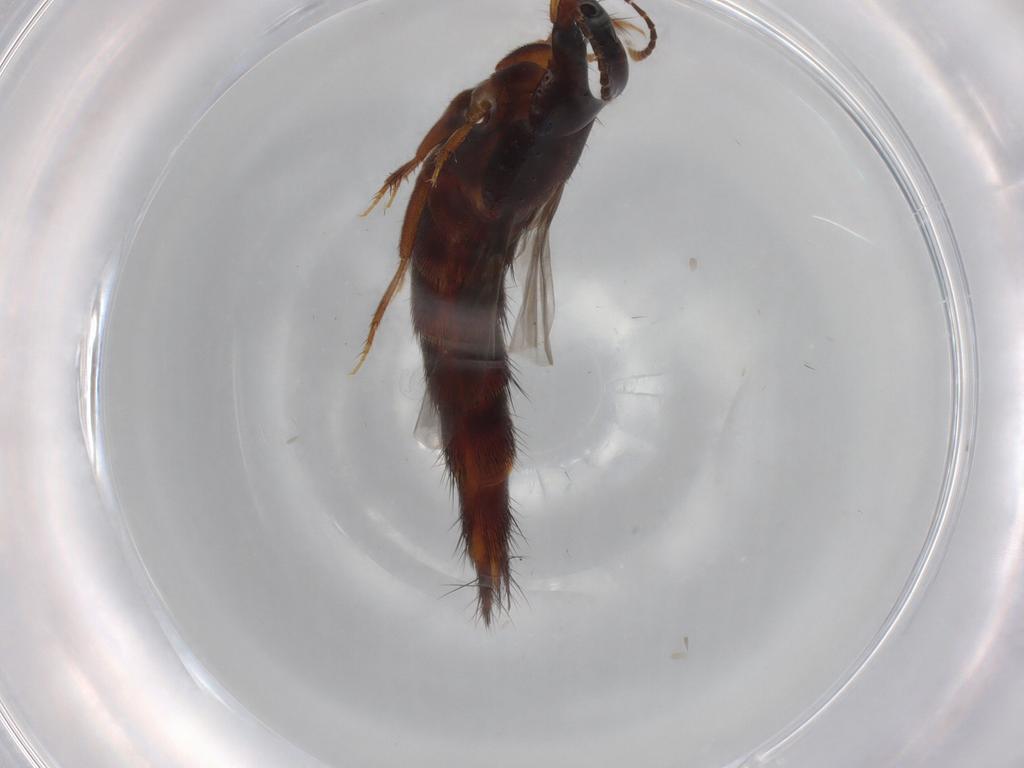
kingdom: Animalia
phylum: Arthropoda
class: Insecta
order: Coleoptera
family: Staphylinidae
